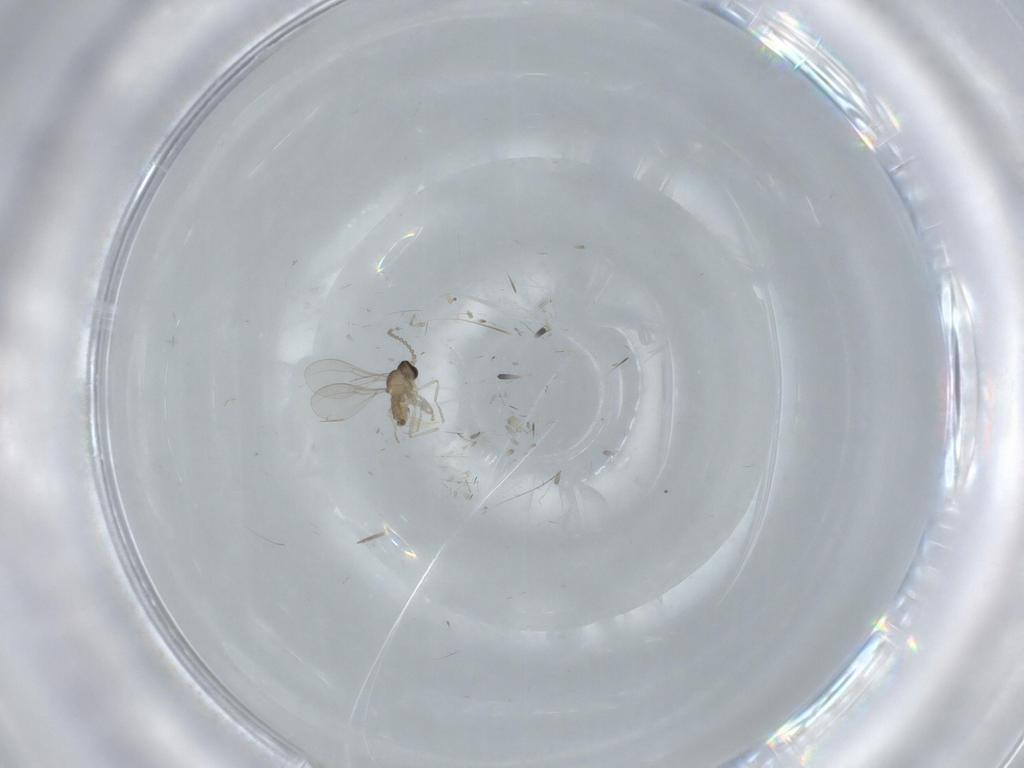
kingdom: Animalia
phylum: Arthropoda
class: Insecta
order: Diptera
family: Cecidomyiidae
